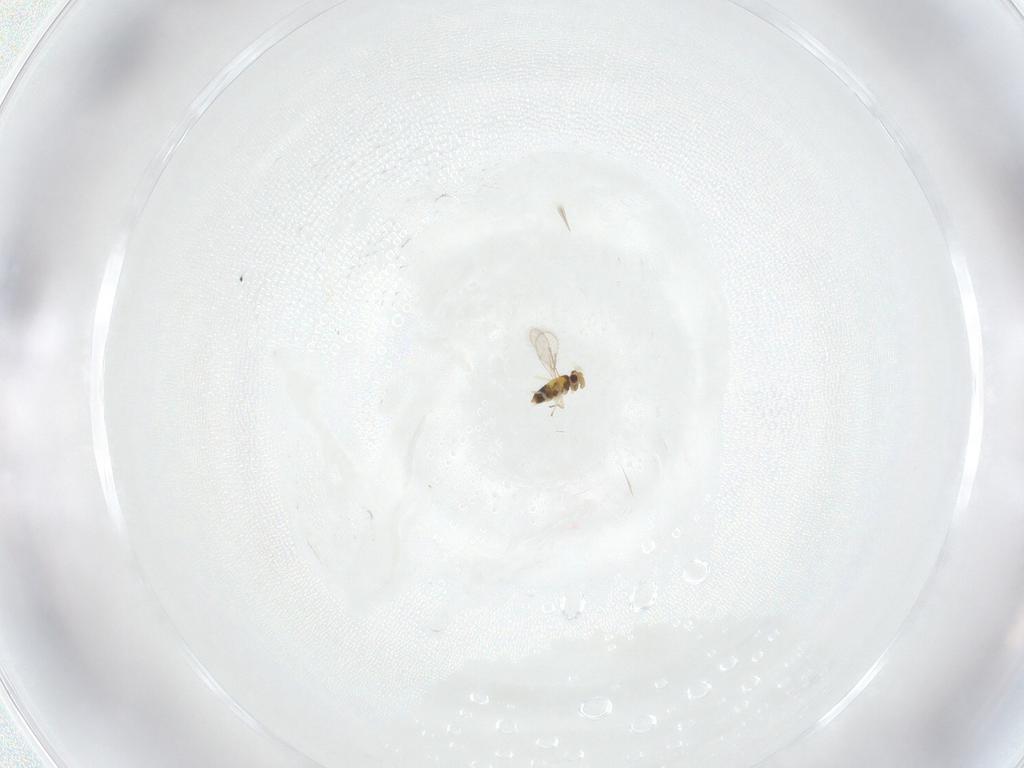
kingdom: Animalia
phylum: Arthropoda
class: Insecta
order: Hymenoptera
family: Aphelinidae
